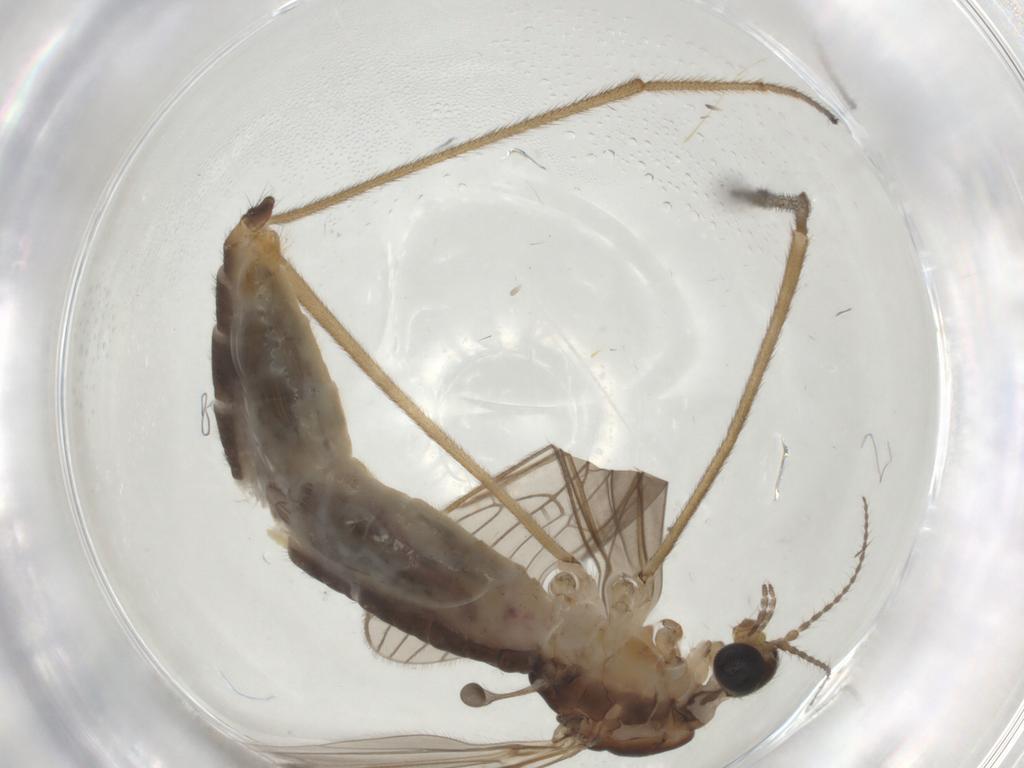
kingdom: Animalia
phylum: Arthropoda
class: Insecta
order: Diptera
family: Limoniidae
